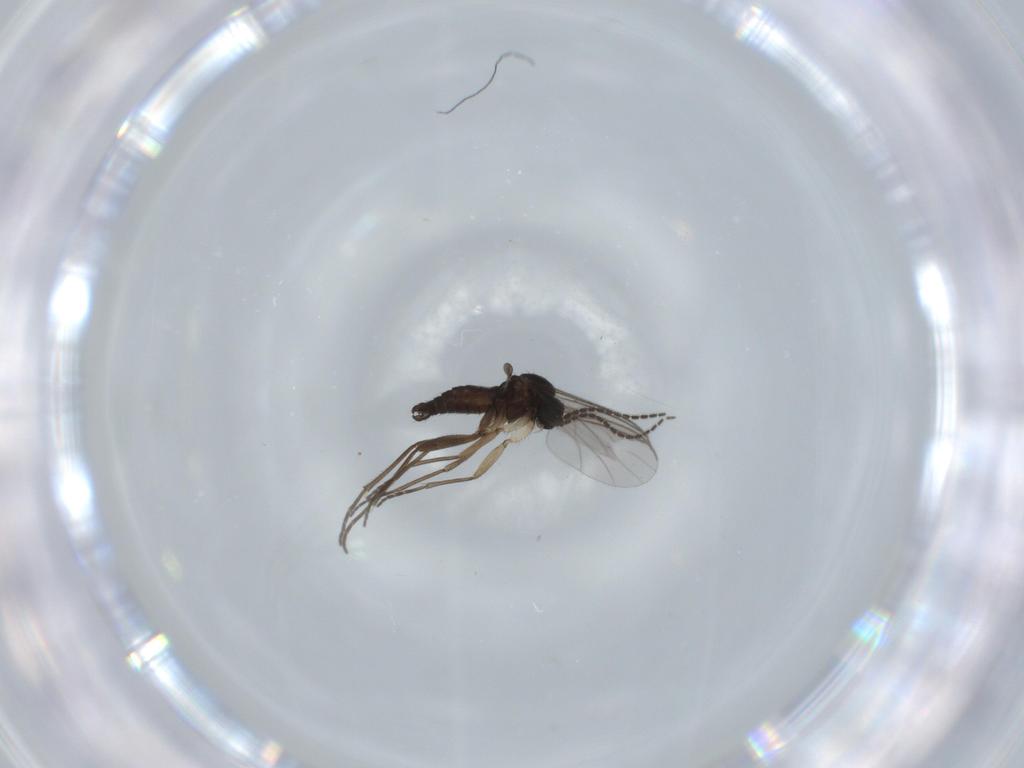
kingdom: Animalia
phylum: Arthropoda
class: Insecta
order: Diptera
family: Sciaridae
